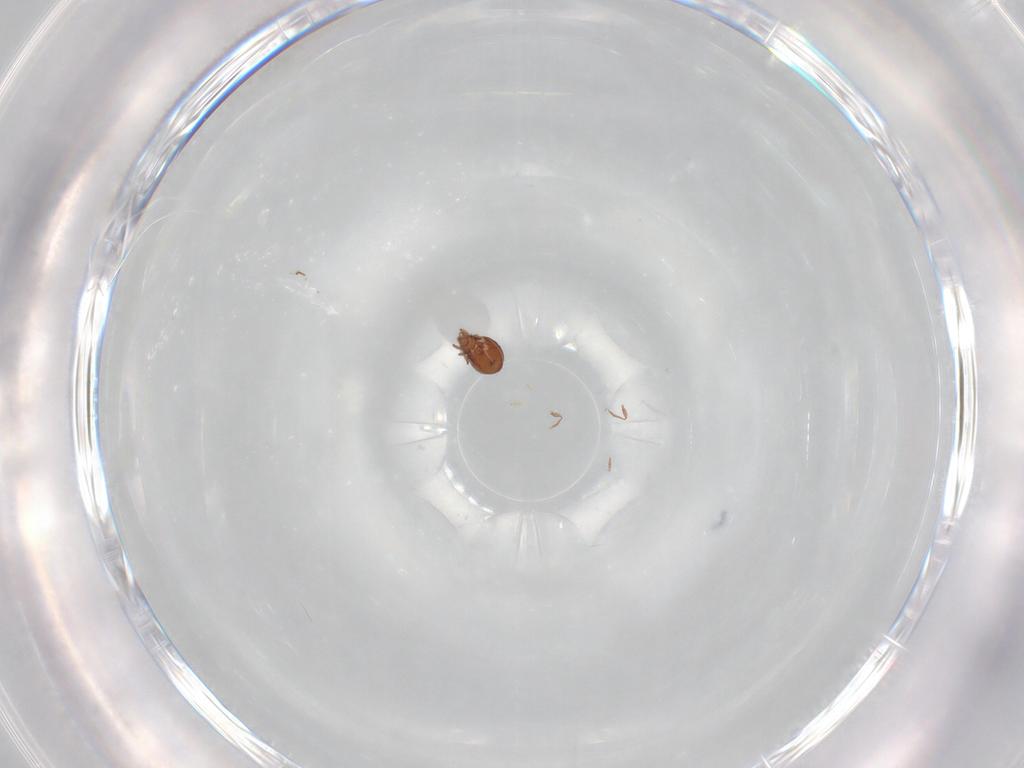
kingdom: Animalia
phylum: Arthropoda
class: Arachnida
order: Sarcoptiformes
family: Oribatulidae
